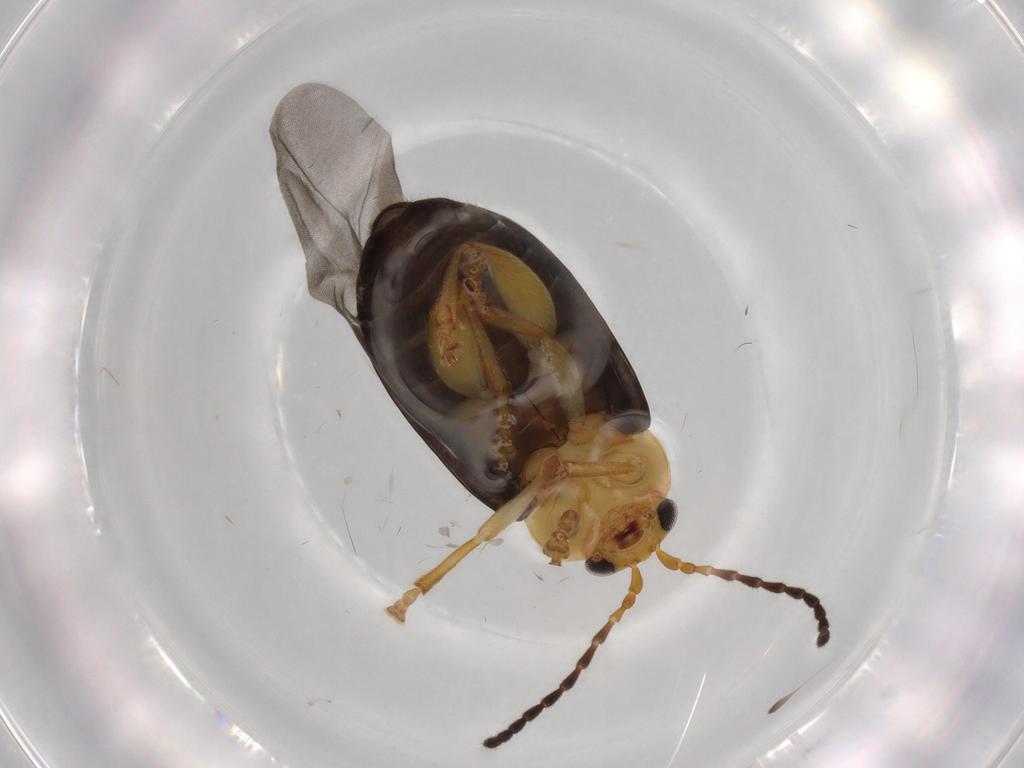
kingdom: Animalia
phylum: Arthropoda
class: Insecta
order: Coleoptera
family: Chrysomelidae
